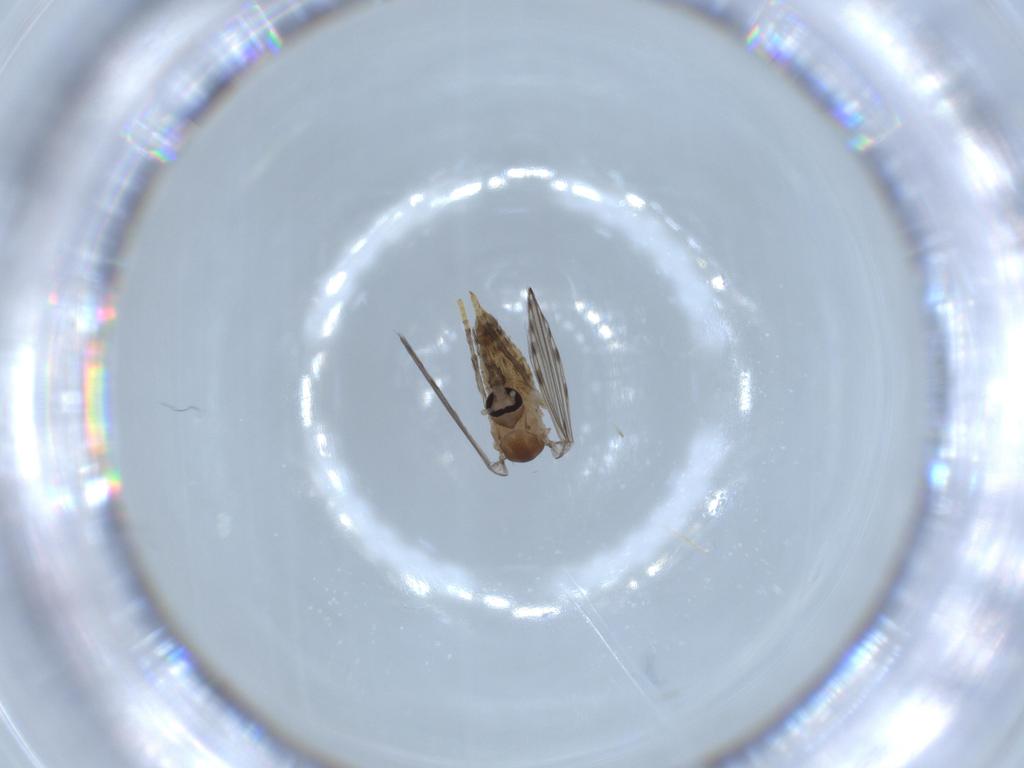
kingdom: Animalia
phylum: Arthropoda
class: Insecta
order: Diptera
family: Psychodidae
